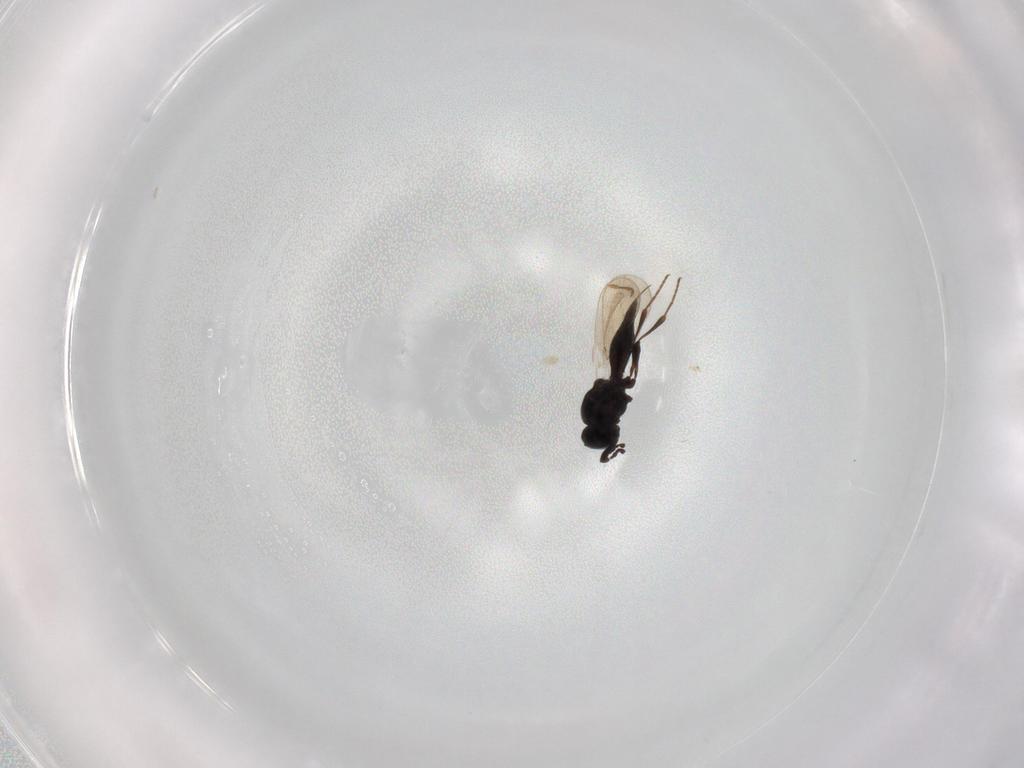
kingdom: Animalia
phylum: Arthropoda
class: Insecta
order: Hymenoptera
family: Platygastridae
